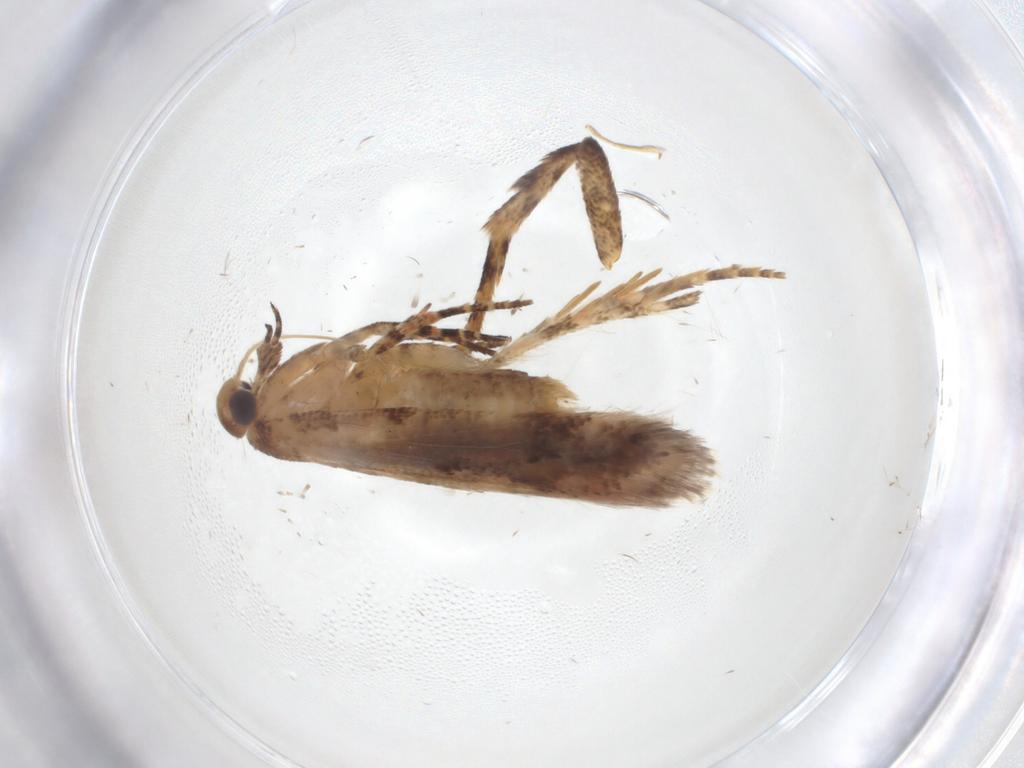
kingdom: Animalia
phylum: Arthropoda
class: Insecta
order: Lepidoptera
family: Gelechiidae
